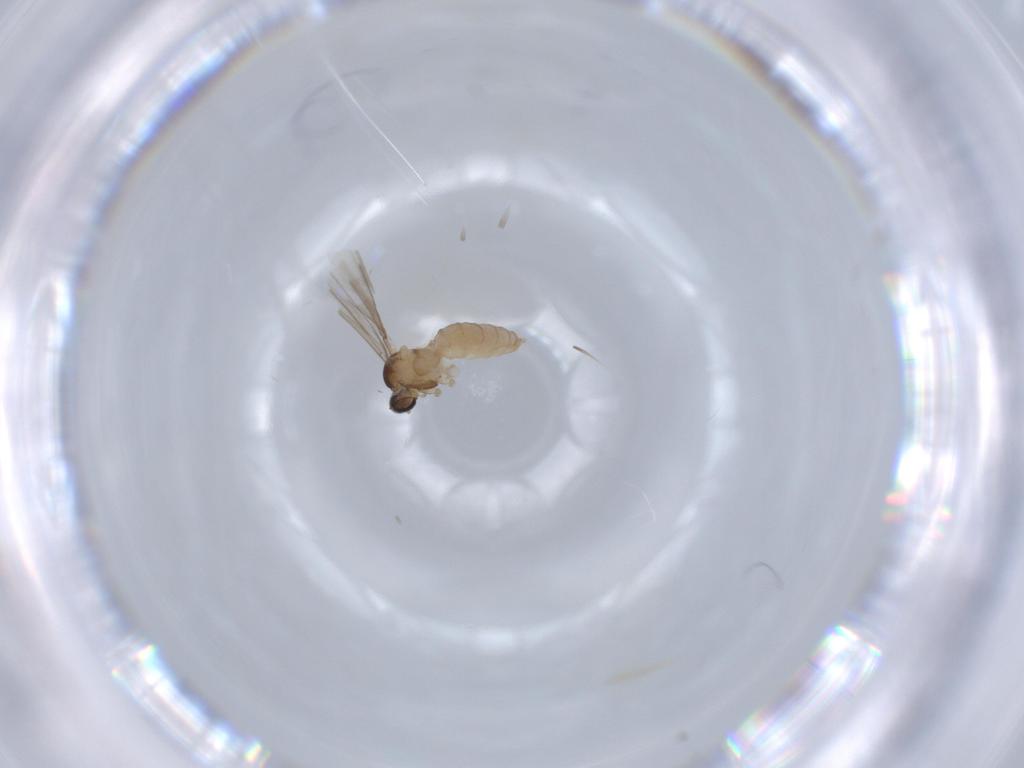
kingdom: Animalia
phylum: Arthropoda
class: Insecta
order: Diptera
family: Cecidomyiidae
